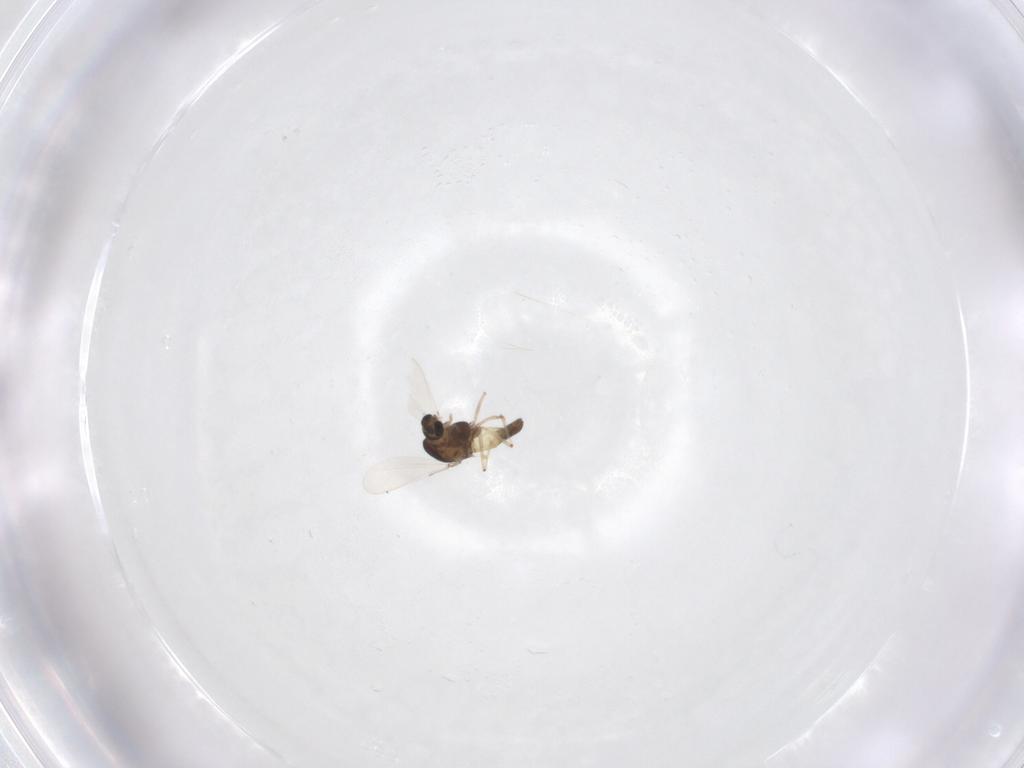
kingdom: Animalia
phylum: Arthropoda
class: Insecta
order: Diptera
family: Chironomidae
